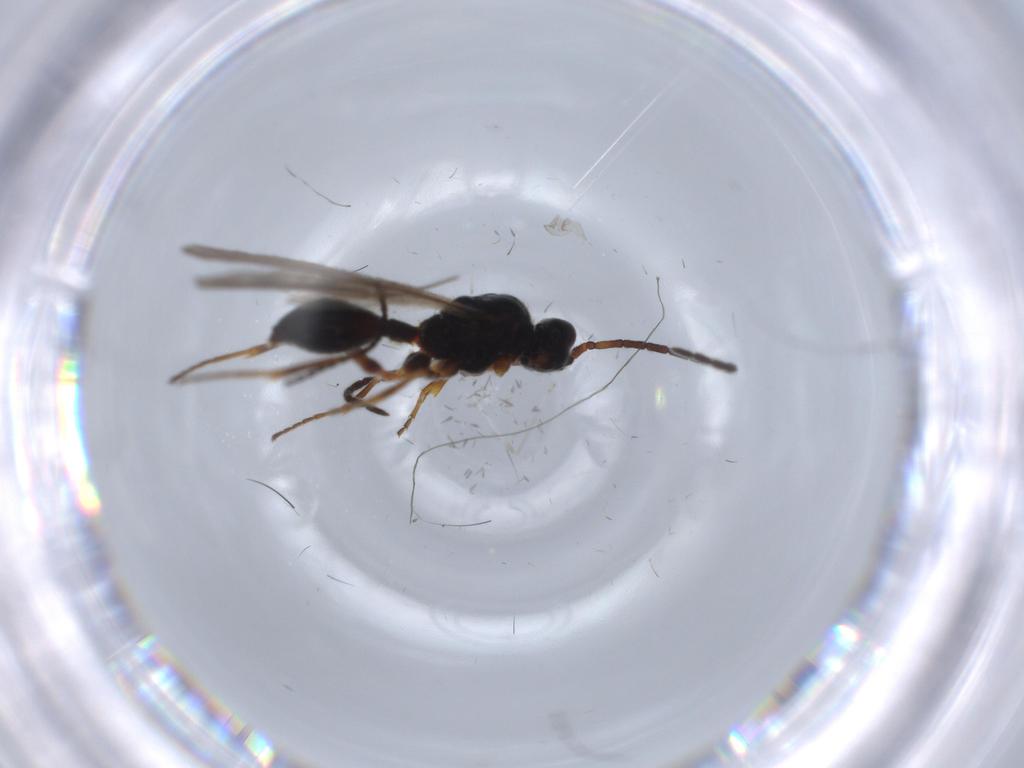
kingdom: Animalia
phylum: Arthropoda
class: Insecta
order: Hymenoptera
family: Braconidae
